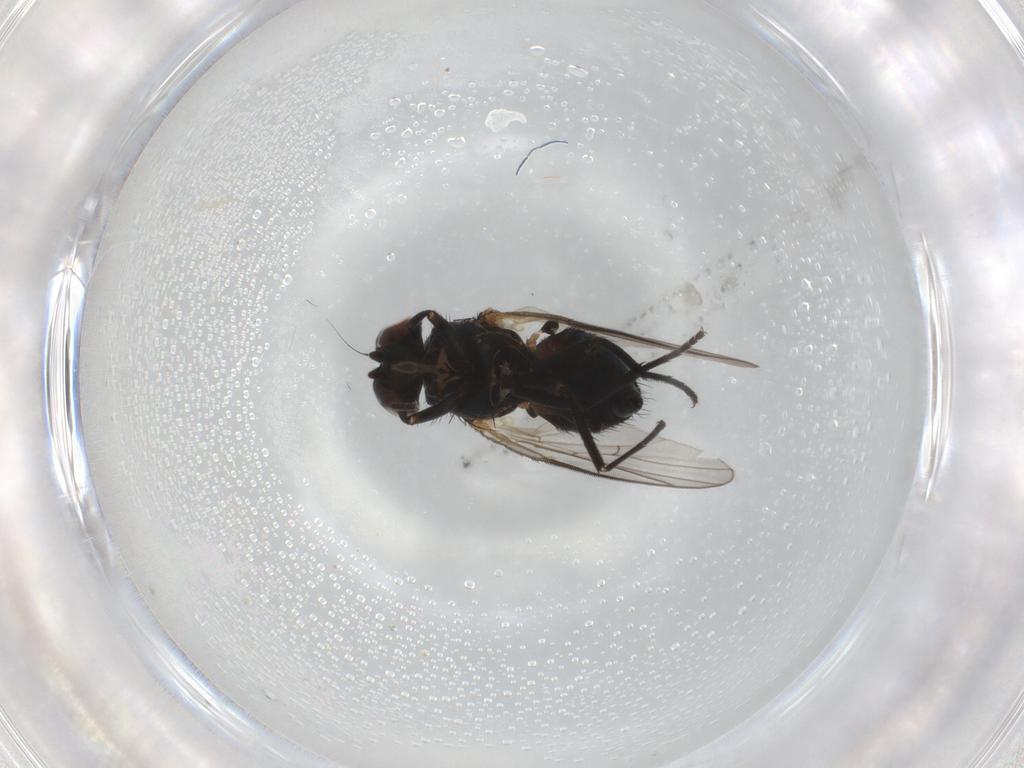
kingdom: Animalia
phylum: Arthropoda
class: Insecta
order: Diptera
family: Agromyzidae
